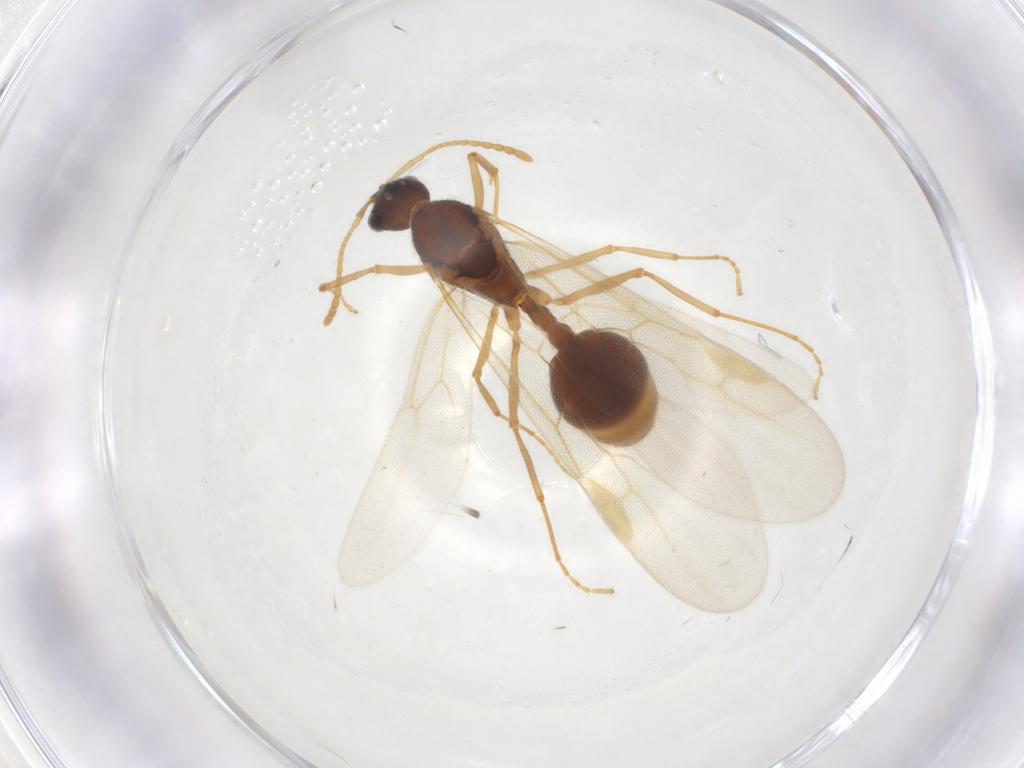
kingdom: Animalia
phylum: Arthropoda
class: Insecta
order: Hymenoptera
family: Formicidae
